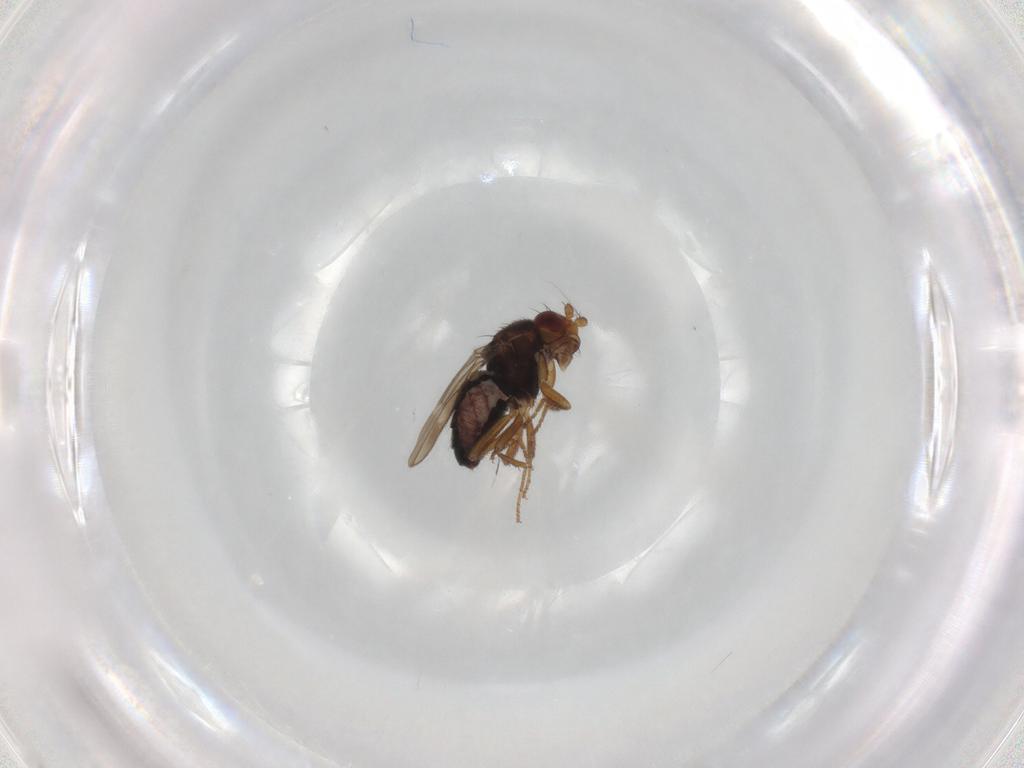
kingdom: Animalia
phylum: Arthropoda
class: Insecta
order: Diptera
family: Sphaeroceridae
